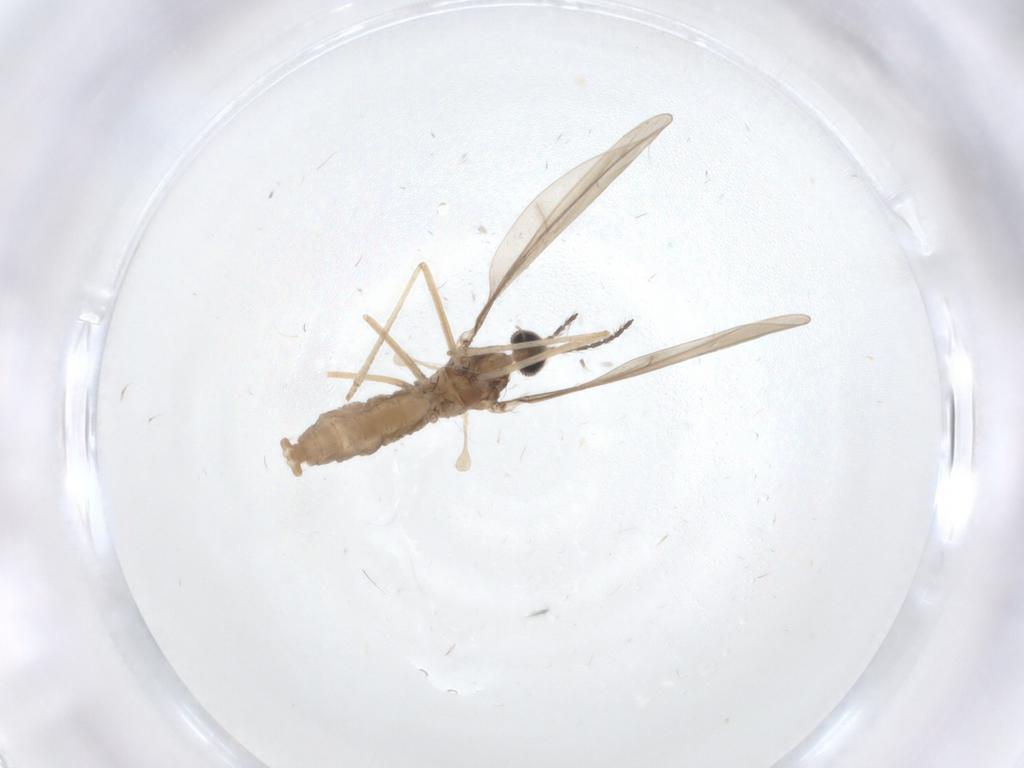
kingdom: Animalia
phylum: Arthropoda
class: Insecta
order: Diptera
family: Cecidomyiidae
